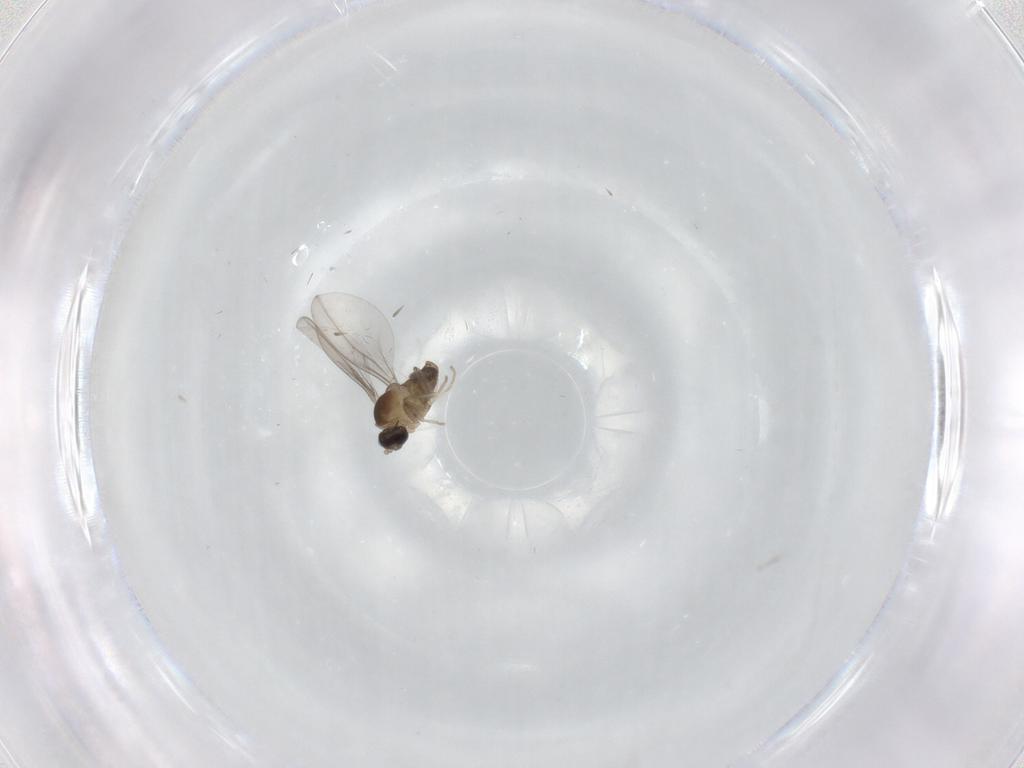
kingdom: Animalia
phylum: Arthropoda
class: Insecta
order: Diptera
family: Cecidomyiidae
